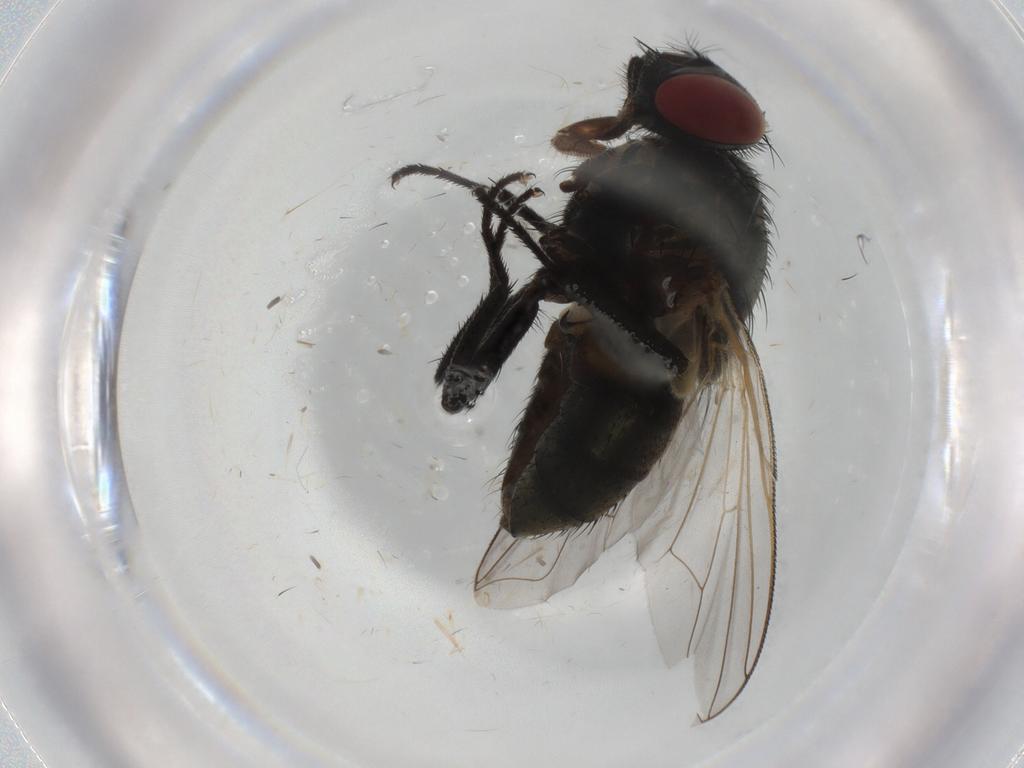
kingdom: Animalia
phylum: Arthropoda
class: Insecta
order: Diptera
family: Muscidae
